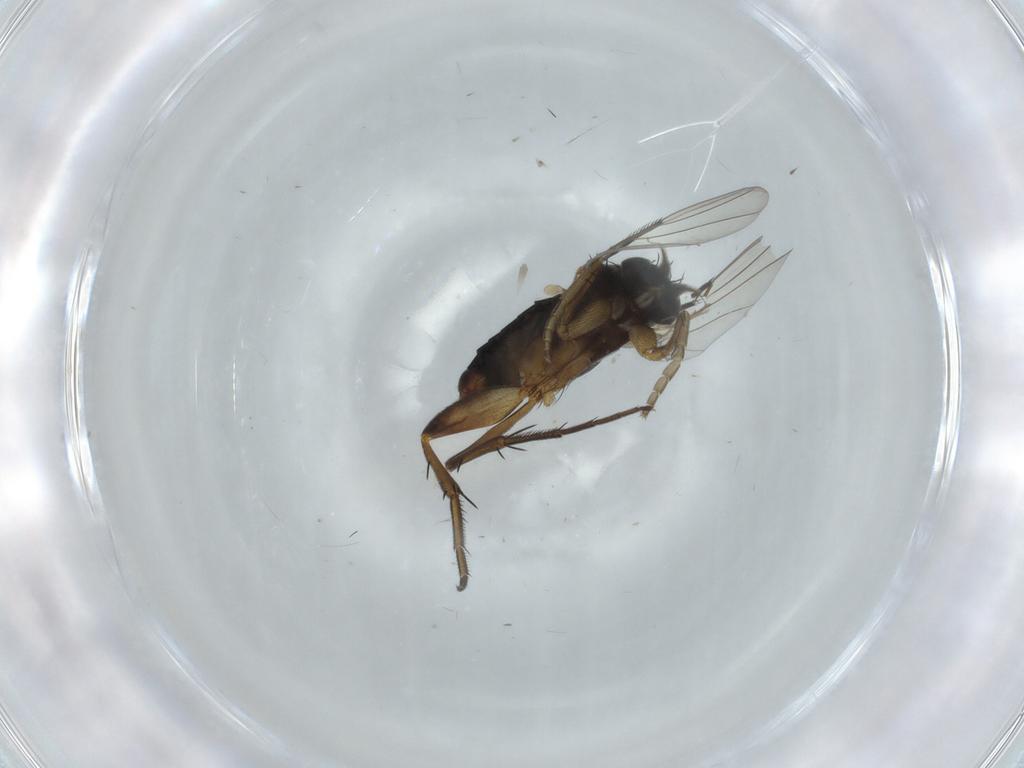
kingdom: Animalia
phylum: Arthropoda
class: Insecta
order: Diptera
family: Phoridae
